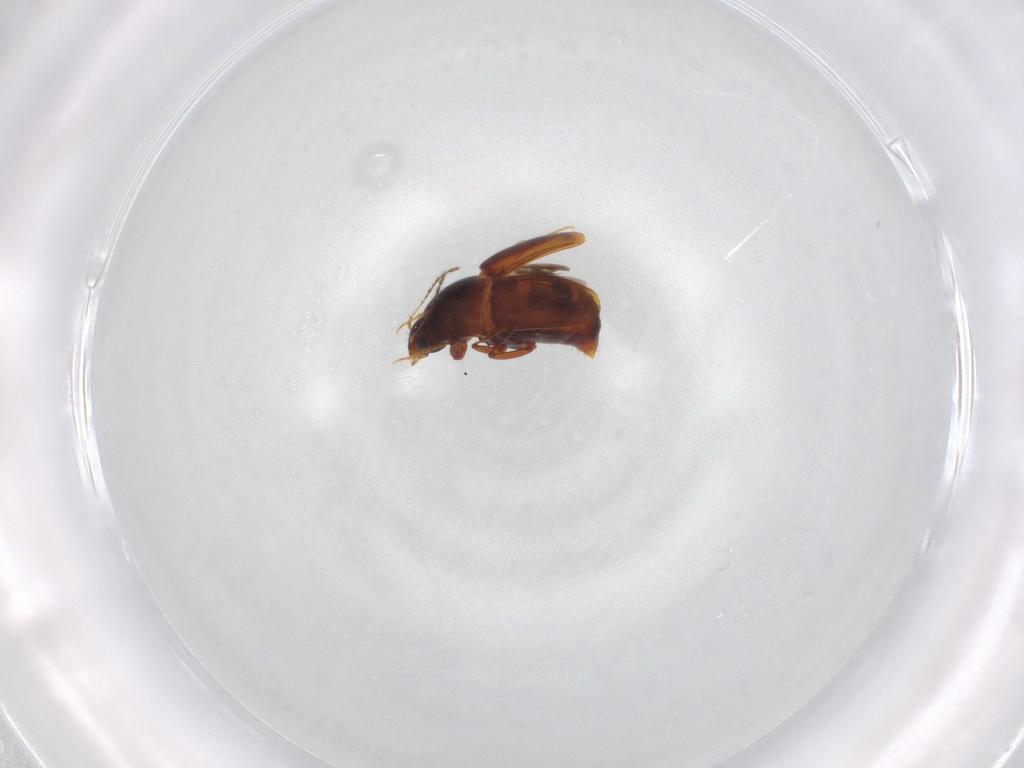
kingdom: Animalia
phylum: Arthropoda
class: Insecta
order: Coleoptera
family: Staphylinidae
